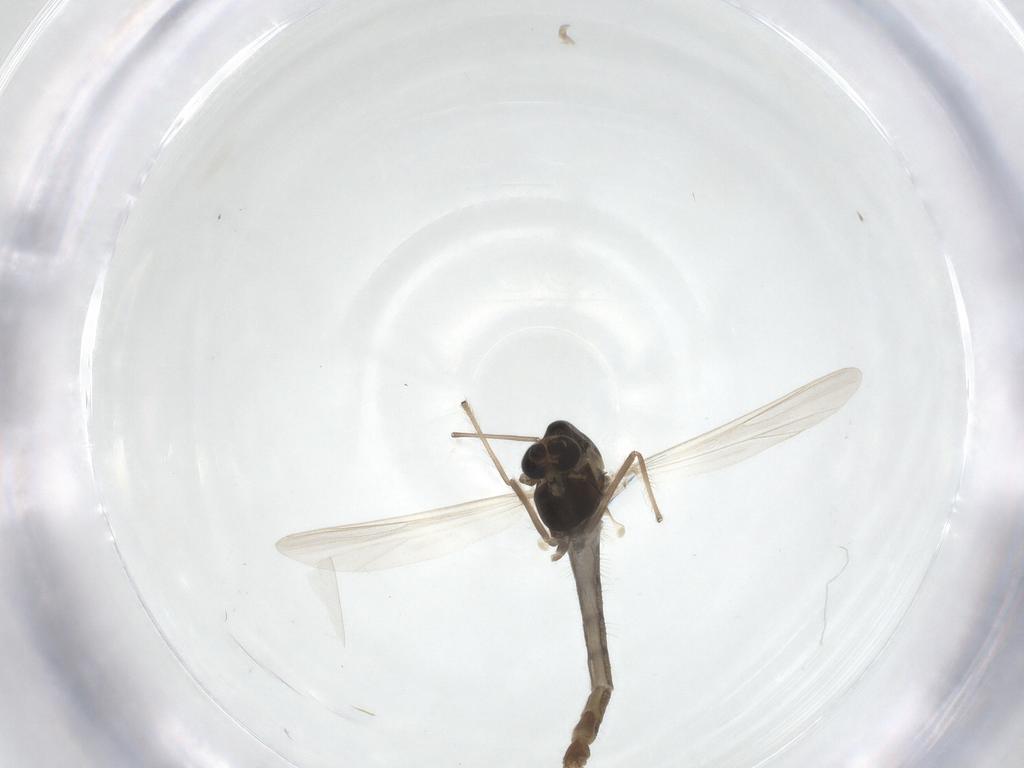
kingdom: Animalia
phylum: Arthropoda
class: Insecta
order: Diptera
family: Chironomidae
